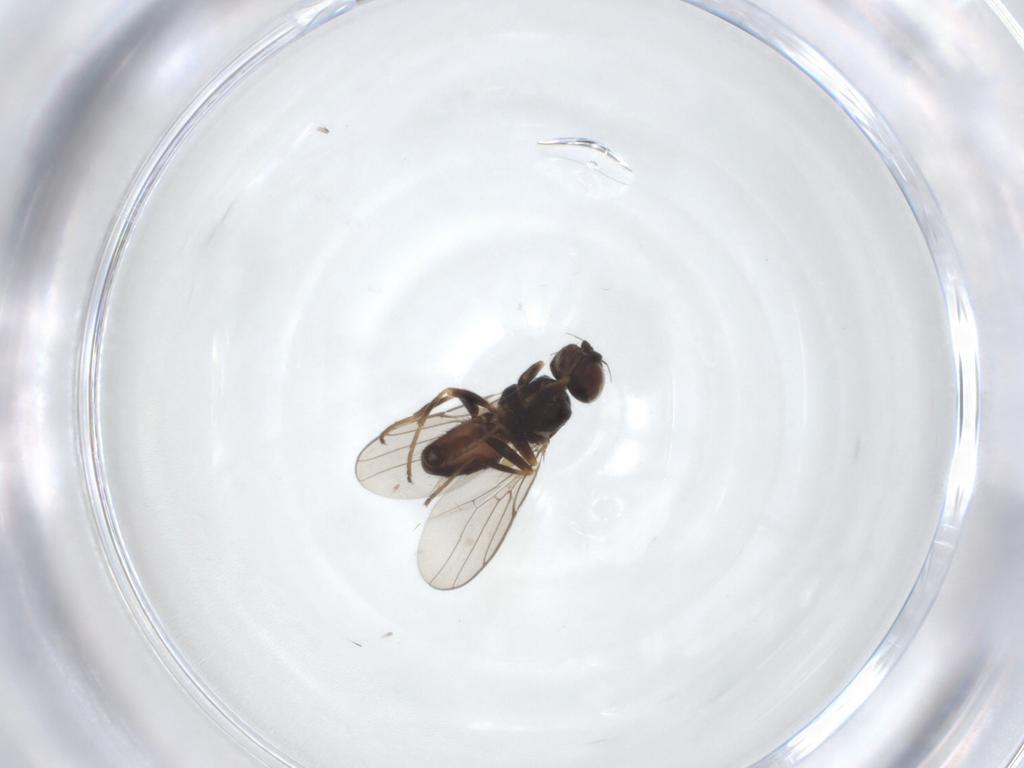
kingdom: Animalia
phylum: Arthropoda
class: Insecta
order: Diptera
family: Chloropidae
